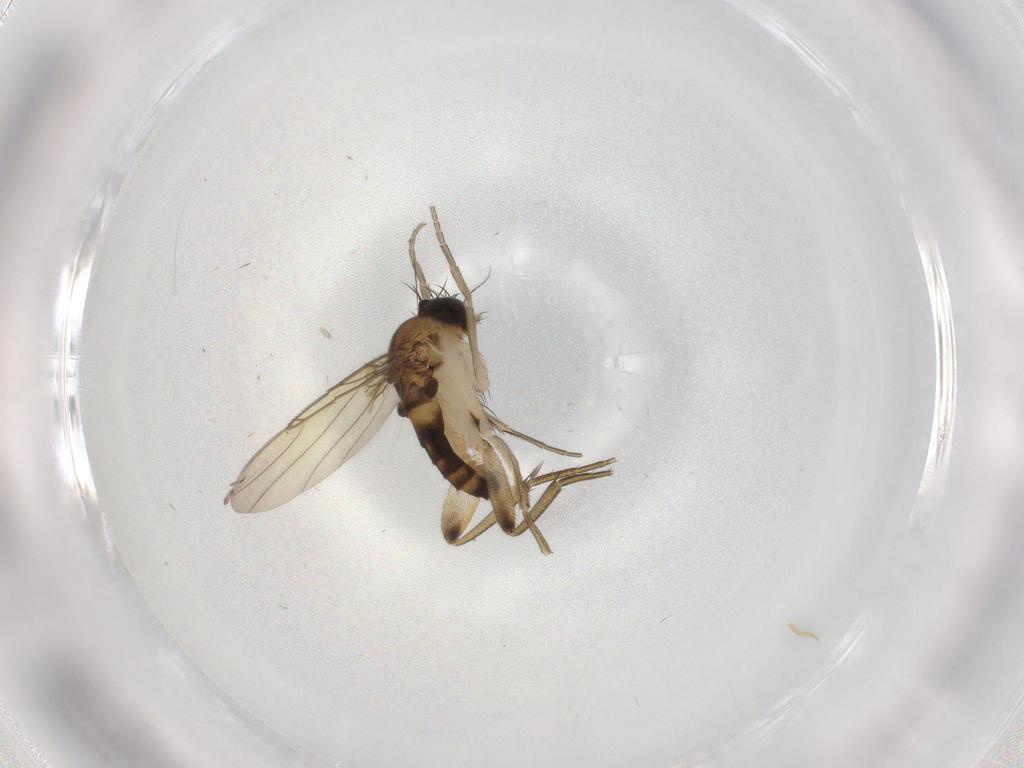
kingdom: Animalia
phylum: Arthropoda
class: Insecta
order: Diptera
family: Phoridae
